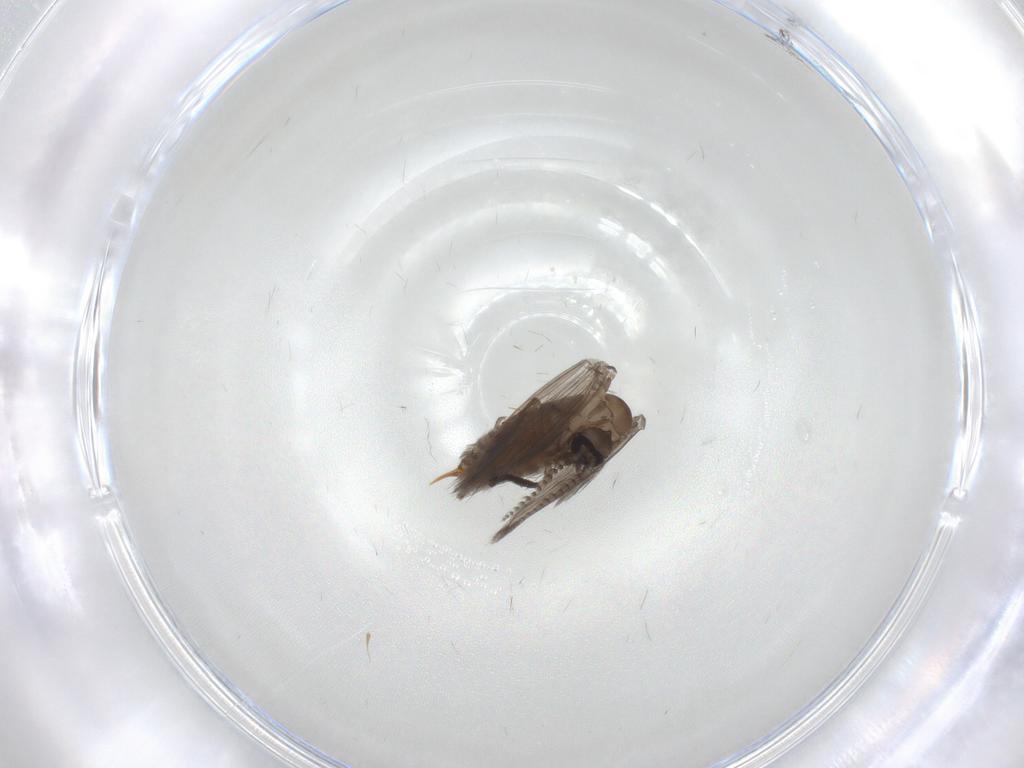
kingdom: Animalia
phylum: Arthropoda
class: Insecta
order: Diptera
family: Psychodidae
